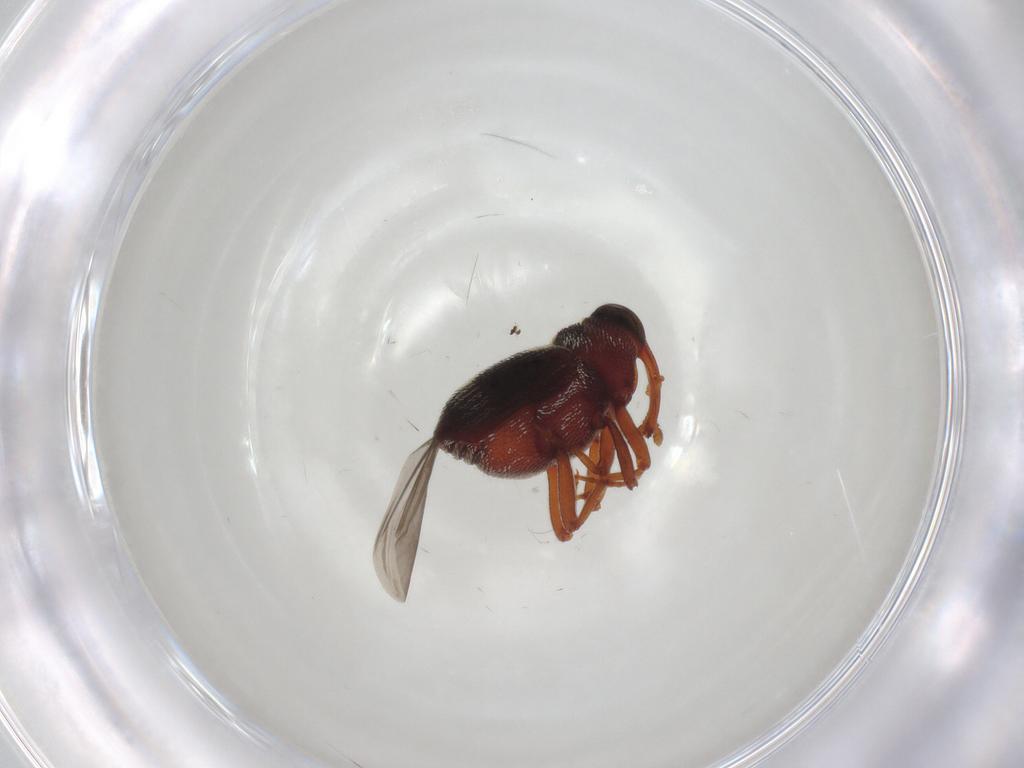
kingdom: Animalia
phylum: Arthropoda
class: Insecta
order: Coleoptera
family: Curculionidae
